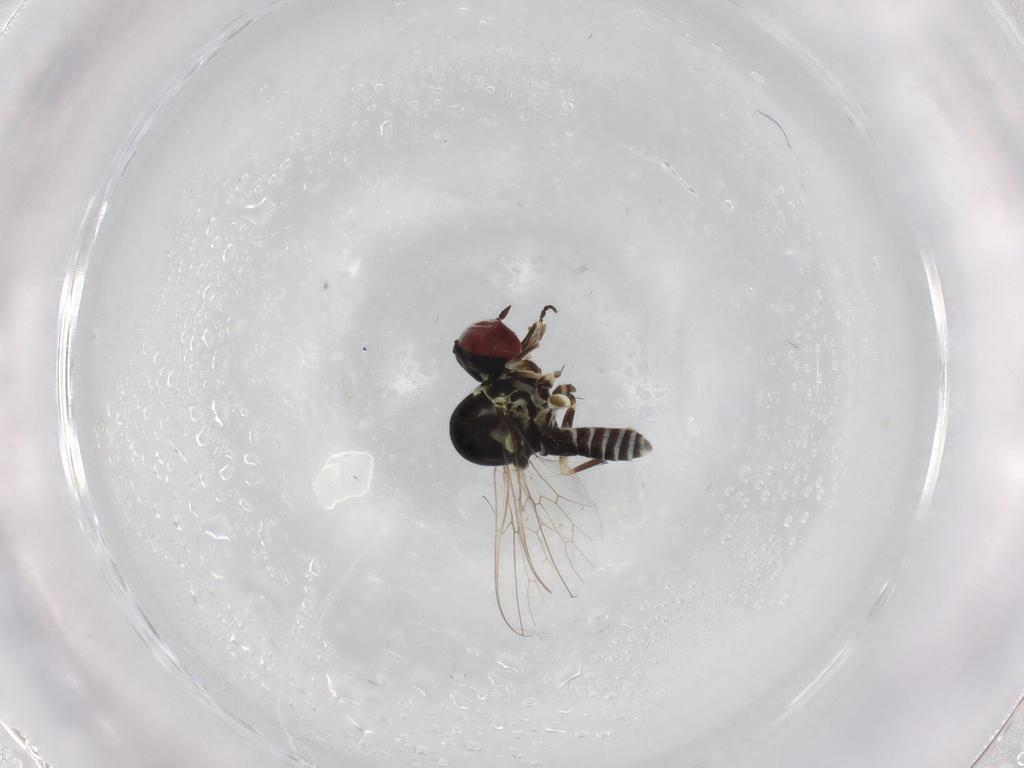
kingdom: Animalia
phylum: Arthropoda
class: Insecta
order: Diptera
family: Bombyliidae
